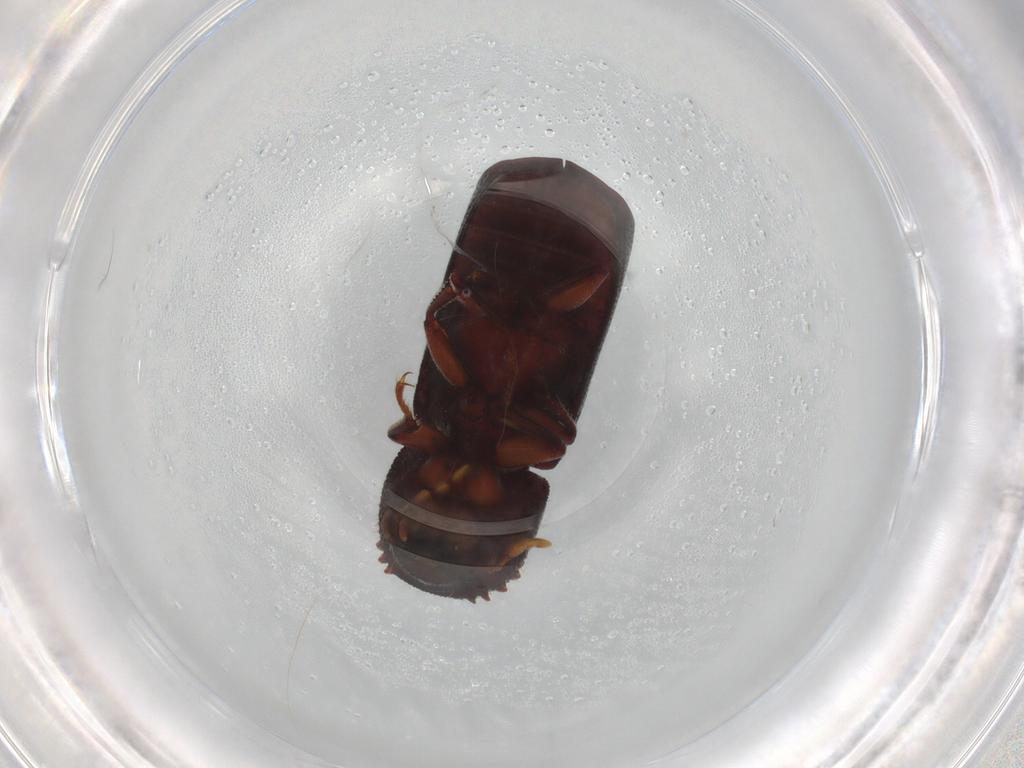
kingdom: Animalia
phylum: Arthropoda
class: Insecta
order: Coleoptera
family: Bostrichidae
